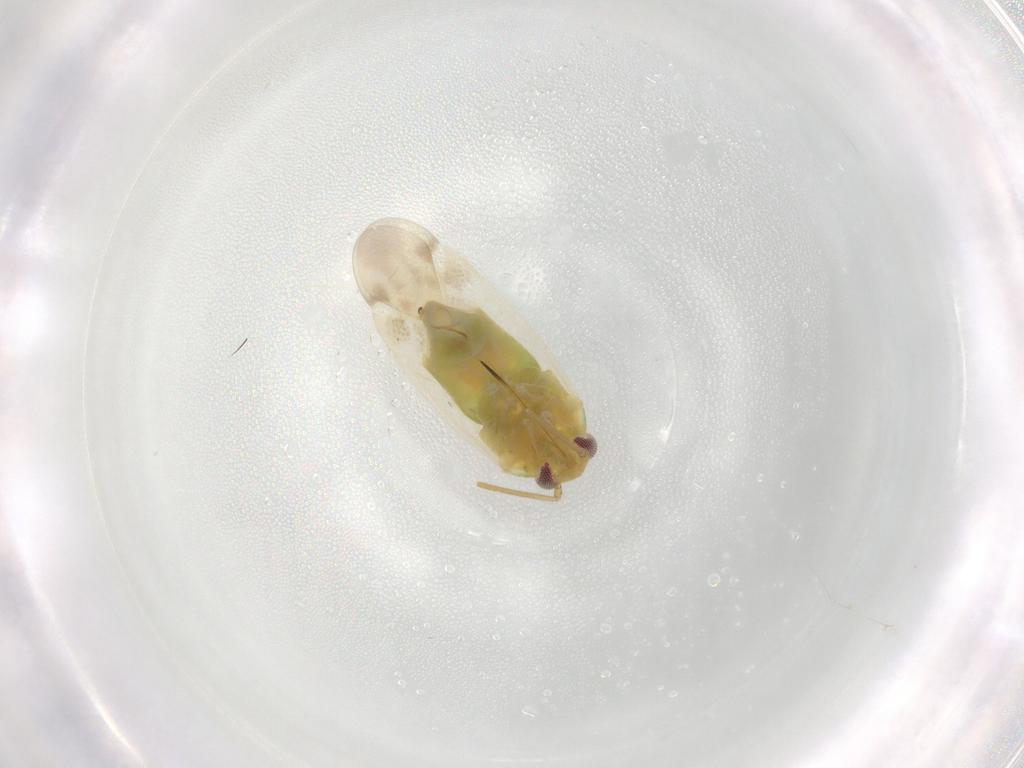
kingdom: Animalia
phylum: Arthropoda
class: Insecta
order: Hemiptera
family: Miridae
